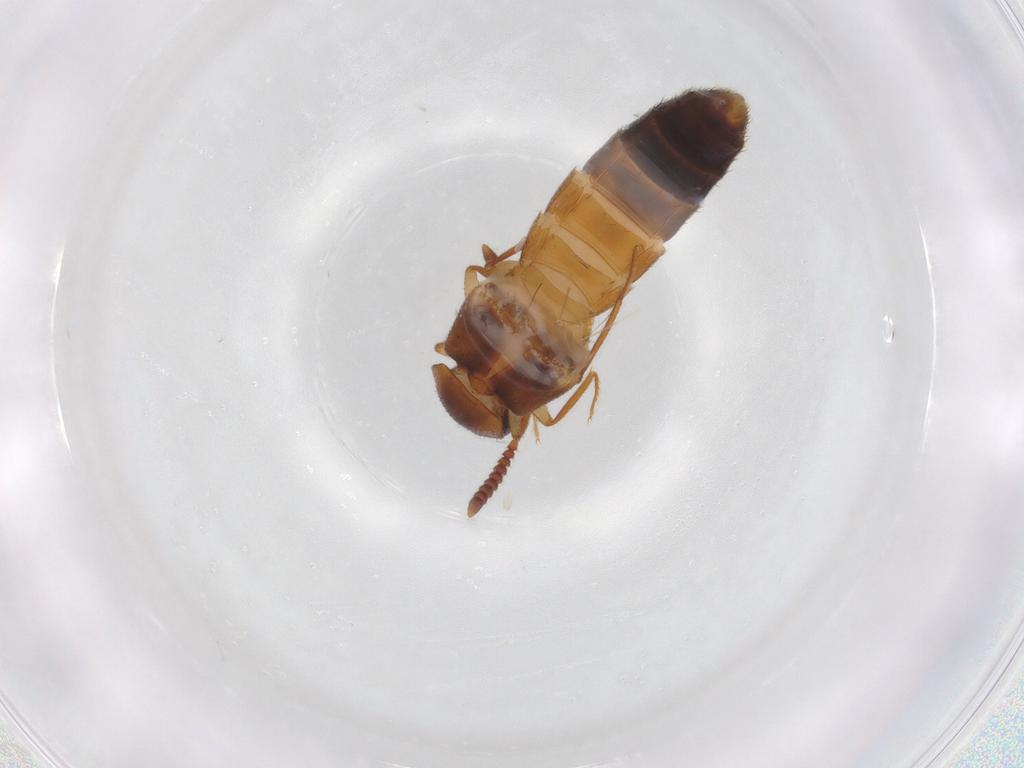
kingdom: Animalia
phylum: Arthropoda
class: Insecta
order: Coleoptera
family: Staphylinidae
